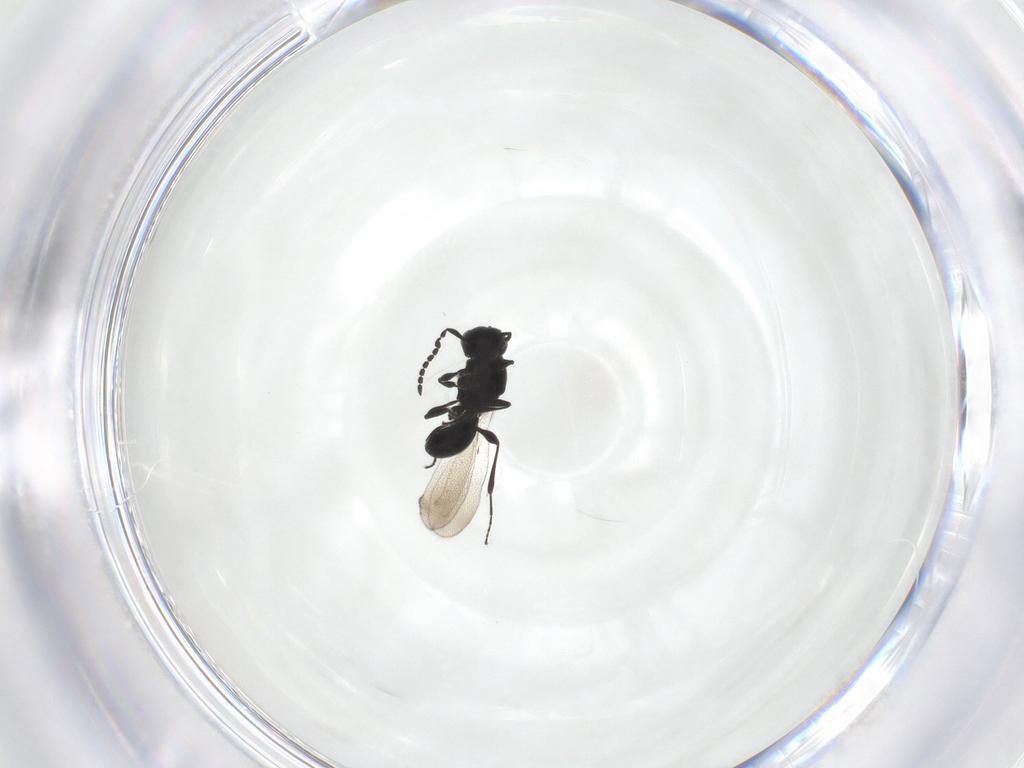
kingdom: Animalia
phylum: Arthropoda
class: Insecta
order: Hymenoptera
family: Platygastridae
